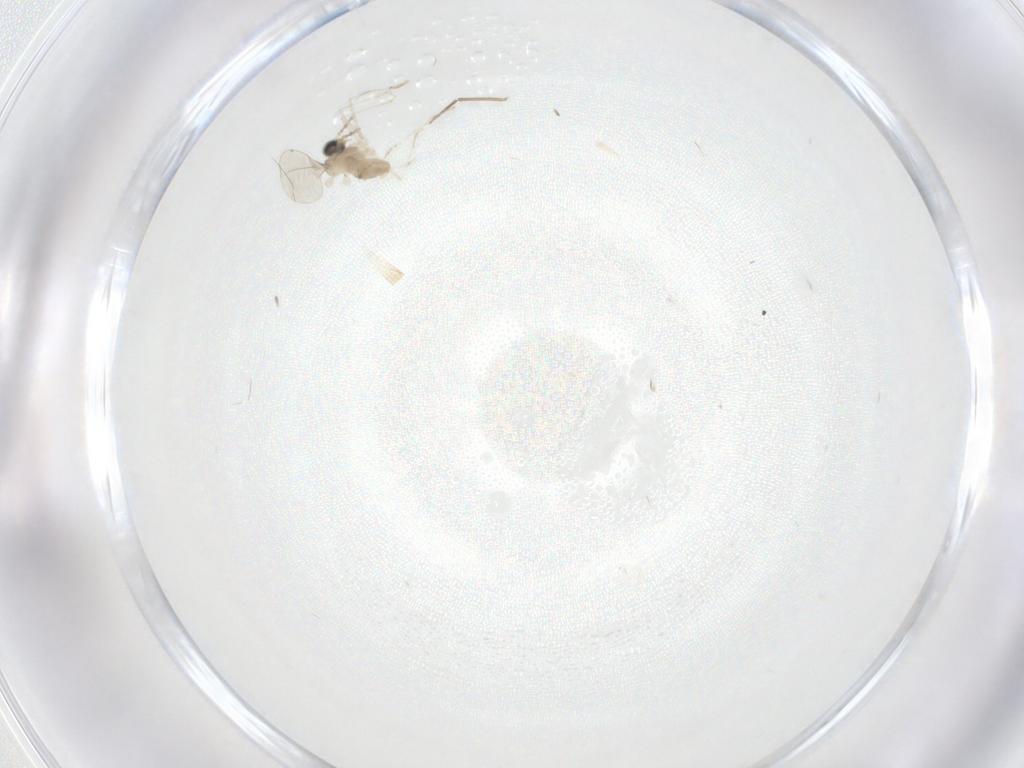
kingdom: Animalia
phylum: Arthropoda
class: Insecta
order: Diptera
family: Cecidomyiidae
